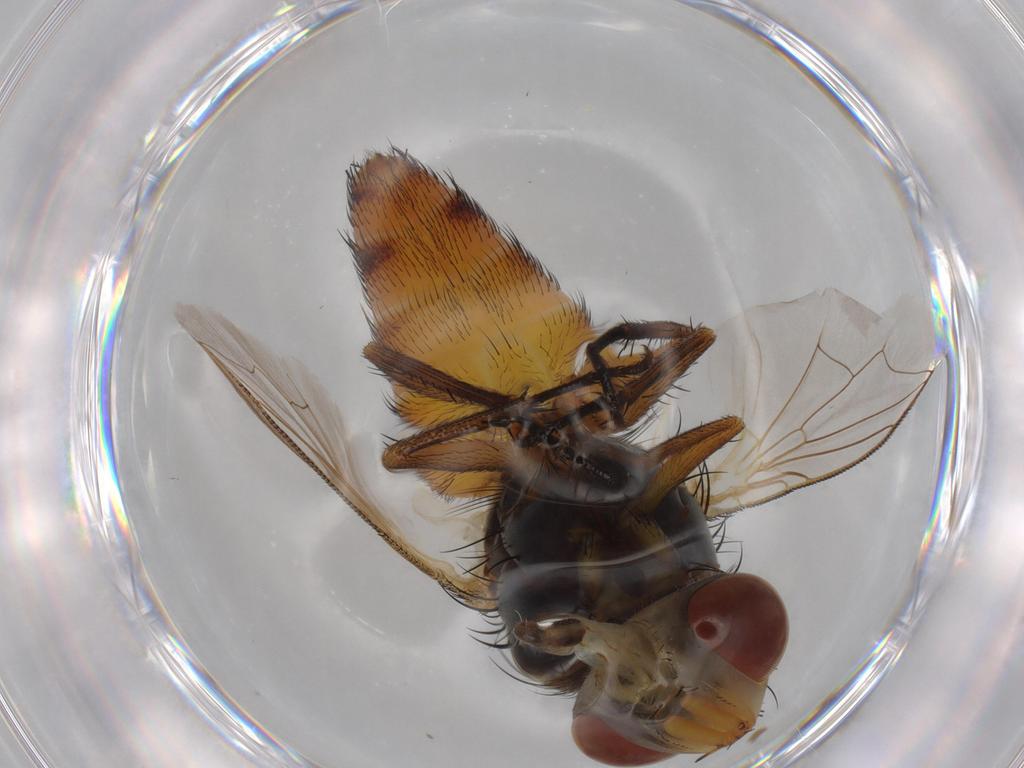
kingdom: Animalia
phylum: Arthropoda
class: Insecta
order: Diptera
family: Sarcophagidae
